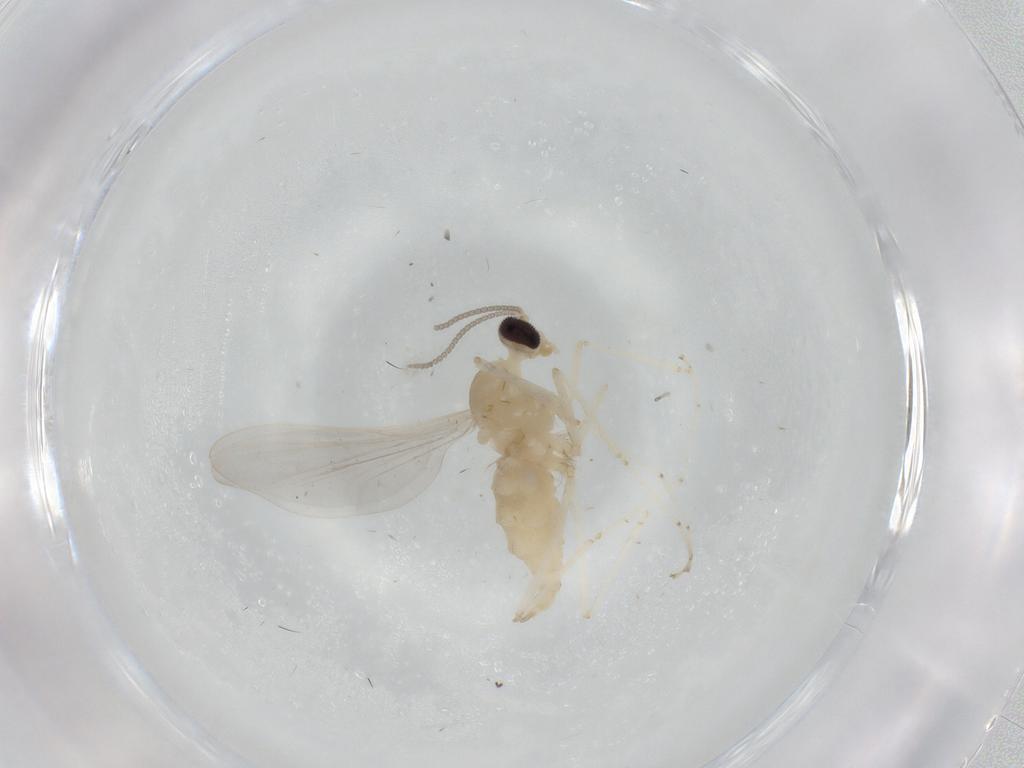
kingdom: Animalia
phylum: Arthropoda
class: Insecta
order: Diptera
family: Cecidomyiidae
